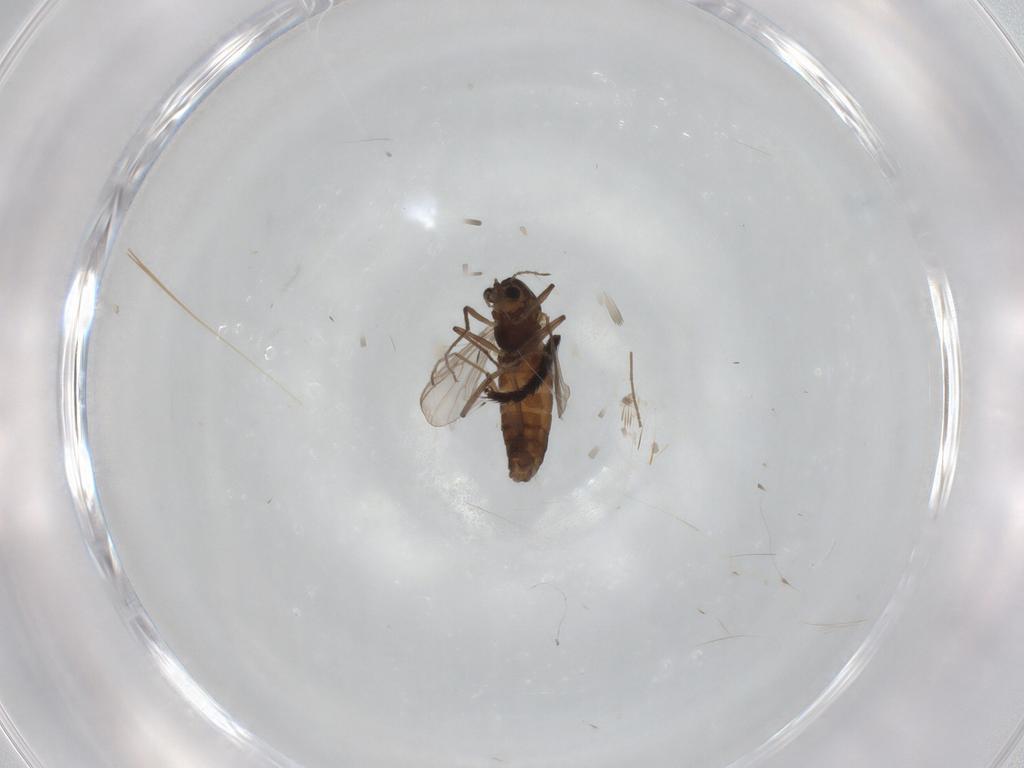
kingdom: Animalia
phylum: Arthropoda
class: Insecta
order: Diptera
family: Chironomidae
